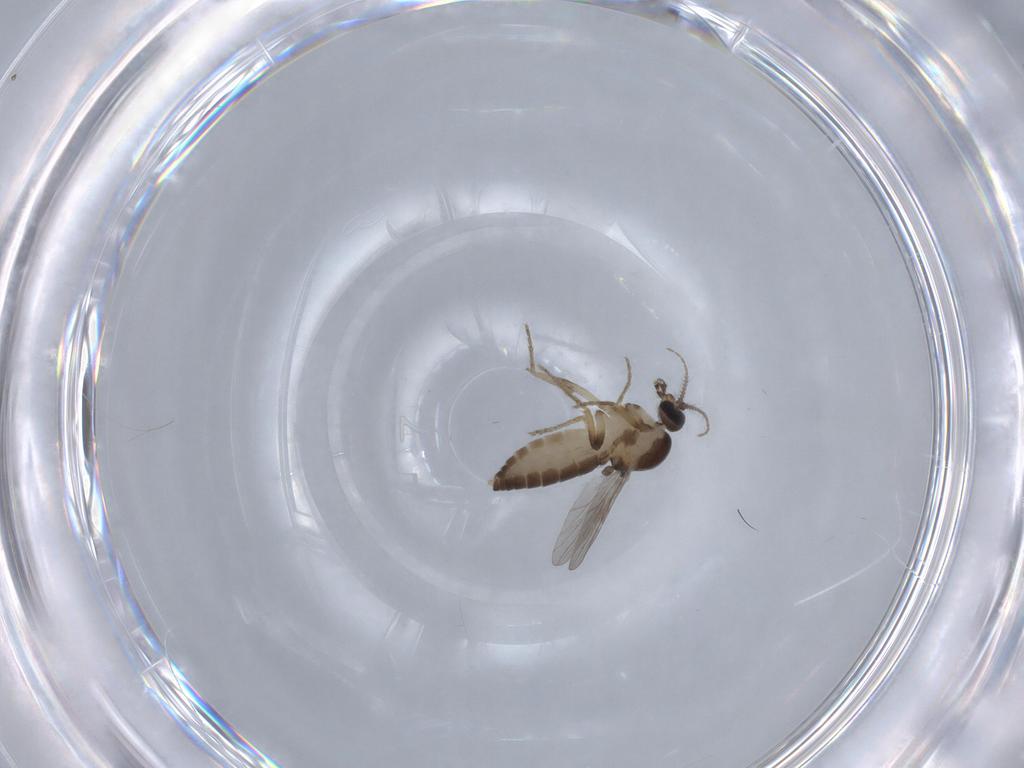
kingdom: Animalia
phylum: Arthropoda
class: Insecta
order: Diptera
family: Ceratopogonidae
